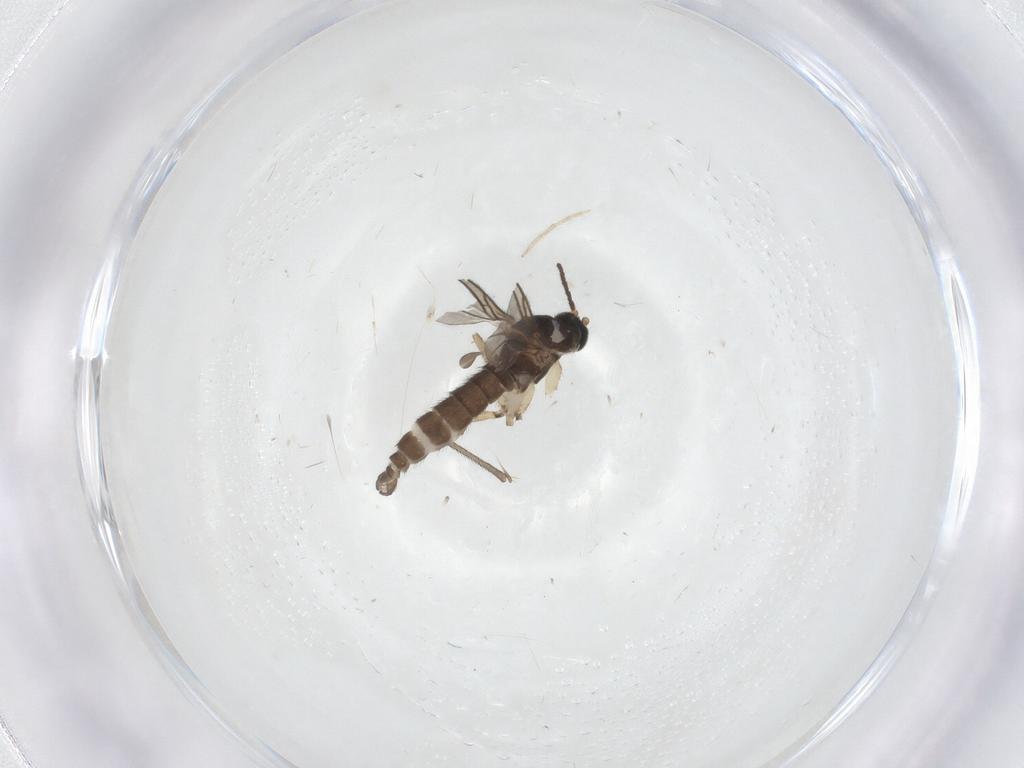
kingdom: Animalia
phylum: Arthropoda
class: Insecta
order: Diptera
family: Sciaridae
